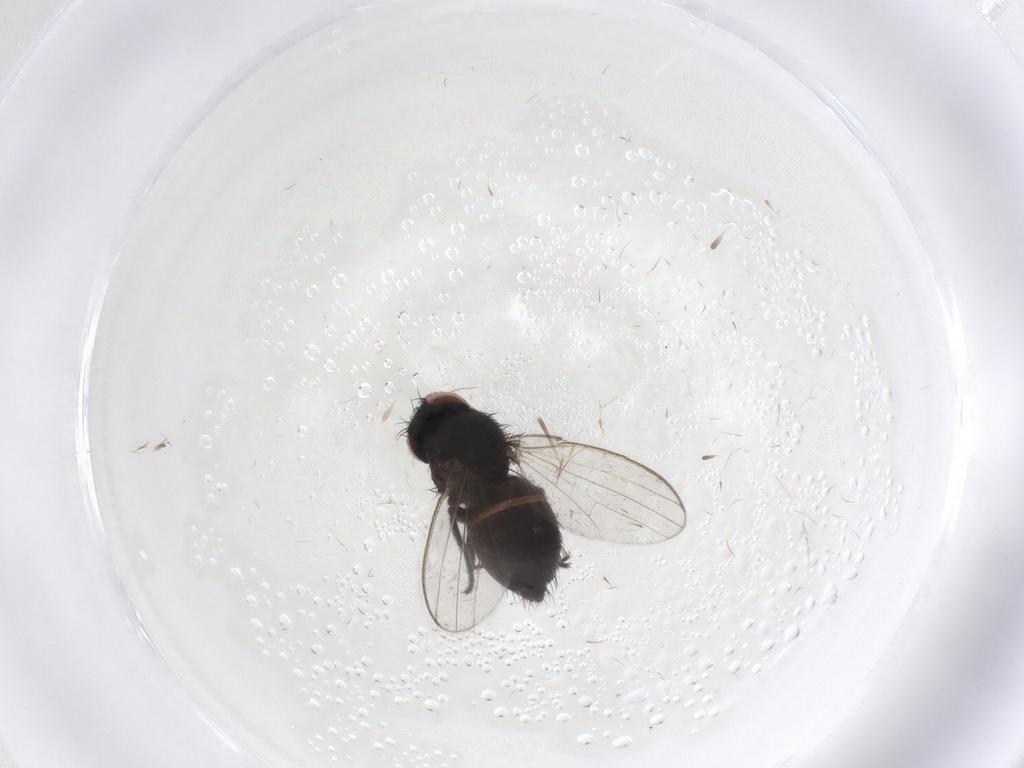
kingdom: Animalia
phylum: Arthropoda
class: Insecta
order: Diptera
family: Milichiidae
